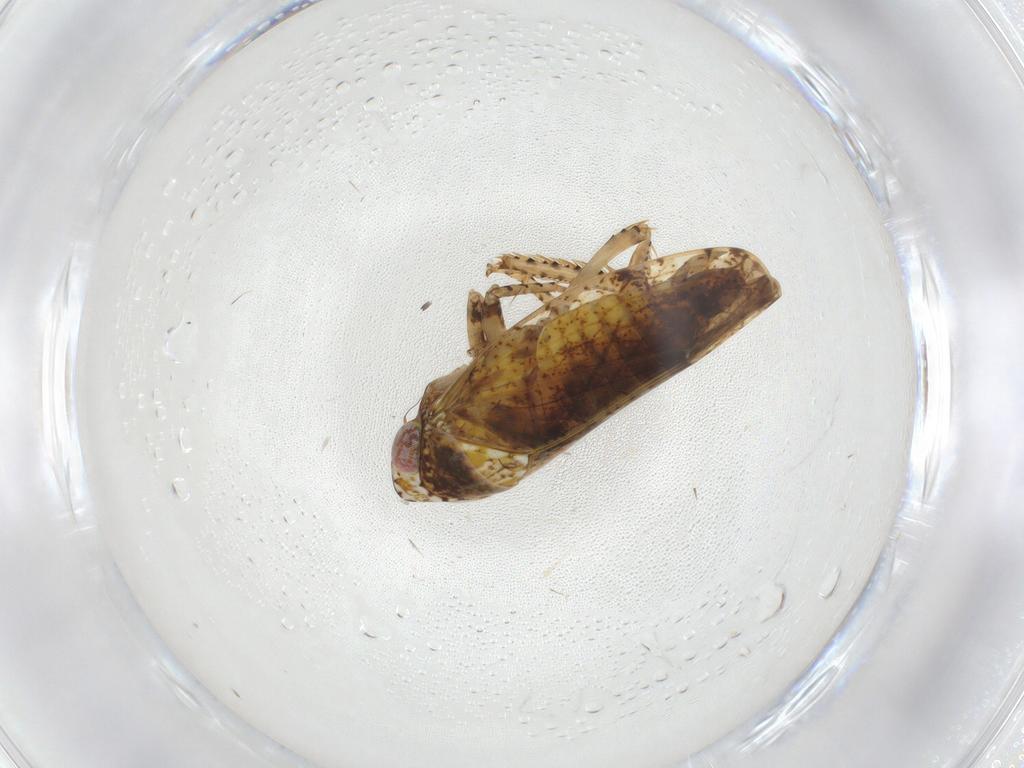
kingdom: Animalia
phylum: Arthropoda
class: Insecta
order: Hemiptera
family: Cicadellidae
